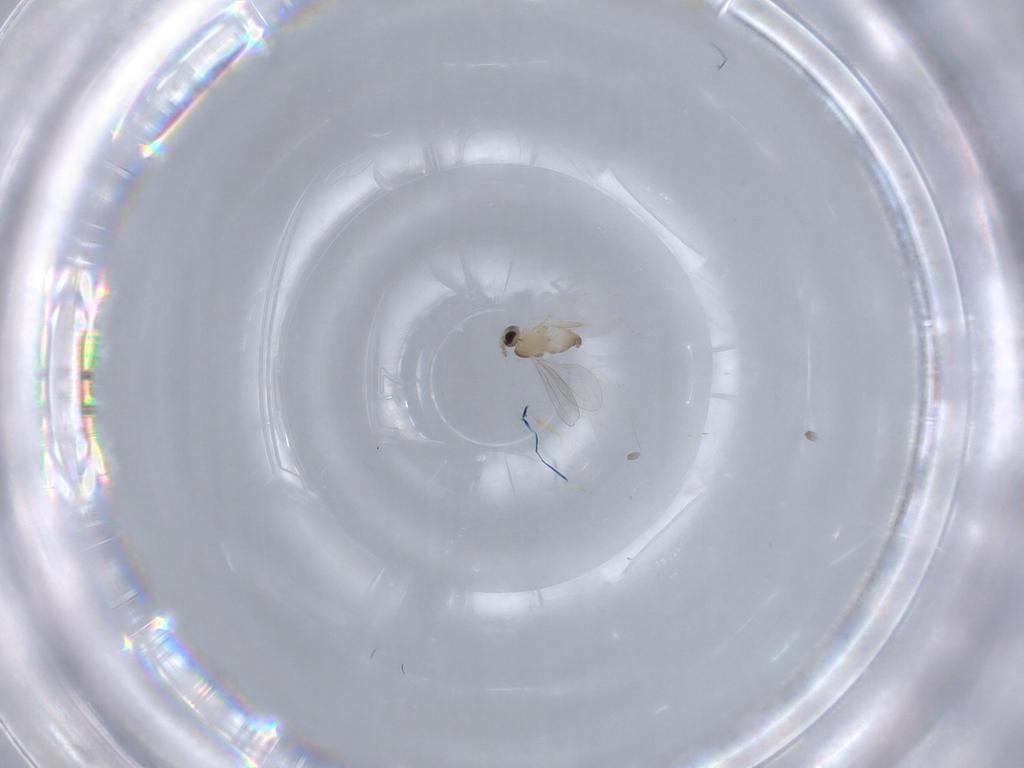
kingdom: Animalia
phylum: Arthropoda
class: Insecta
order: Diptera
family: Cecidomyiidae
